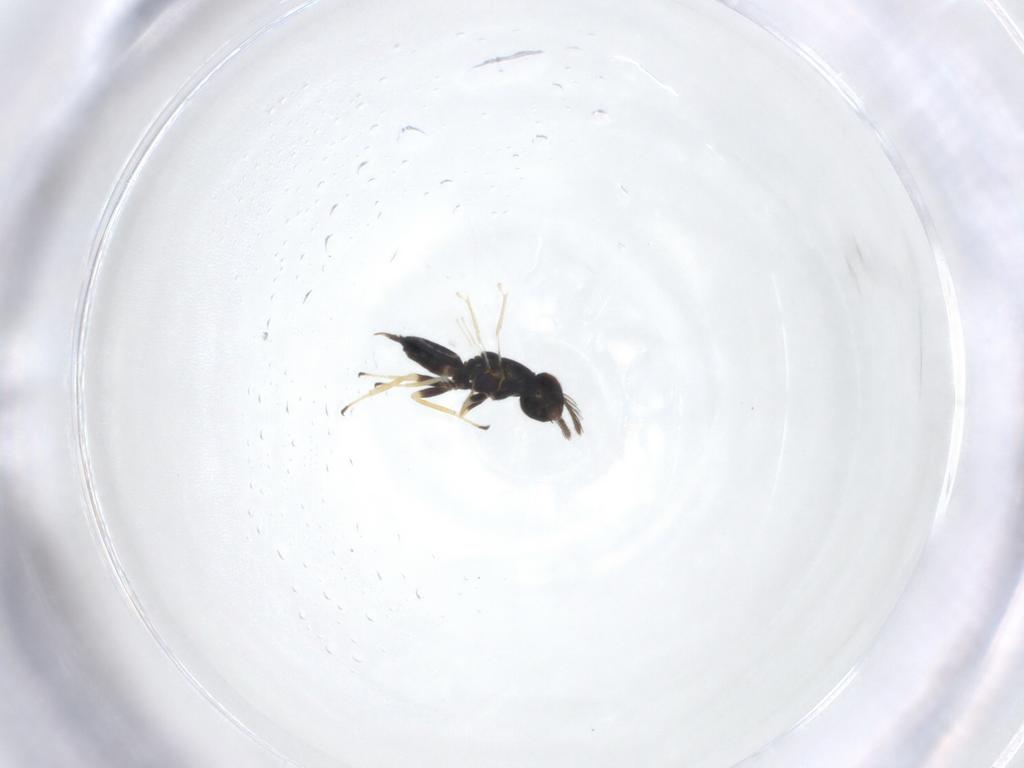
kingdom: Animalia
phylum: Arthropoda
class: Insecta
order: Hymenoptera
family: Eulophidae
